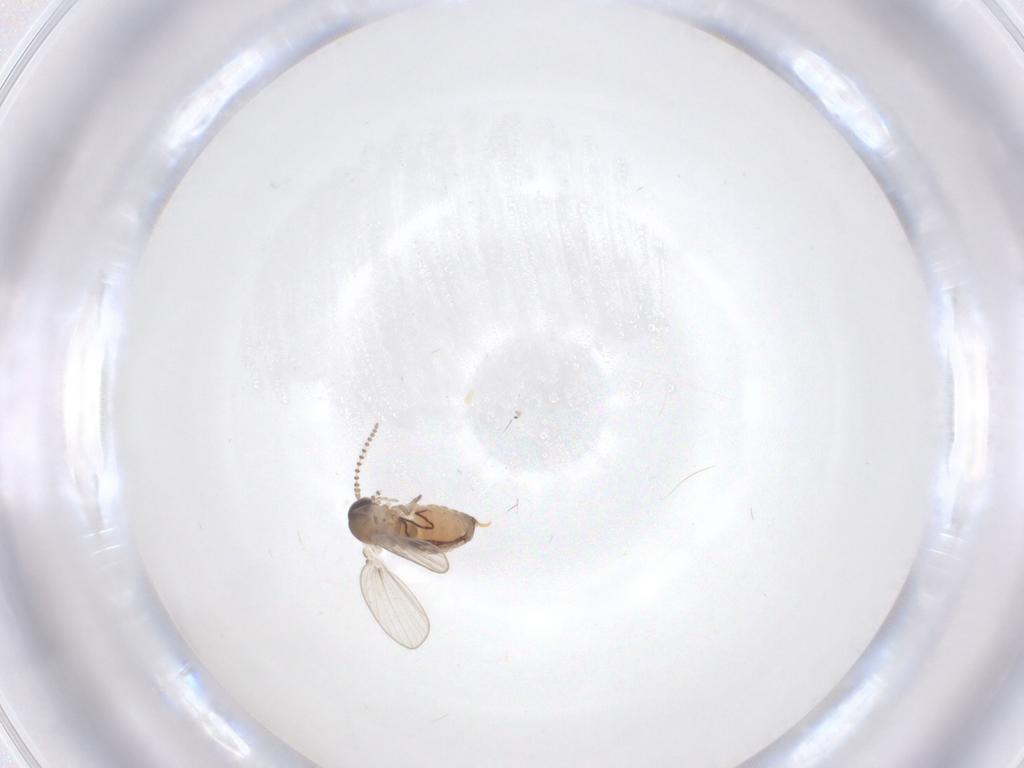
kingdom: Animalia
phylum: Arthropoda
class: Insecta
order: Diptera
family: Psychodidae
